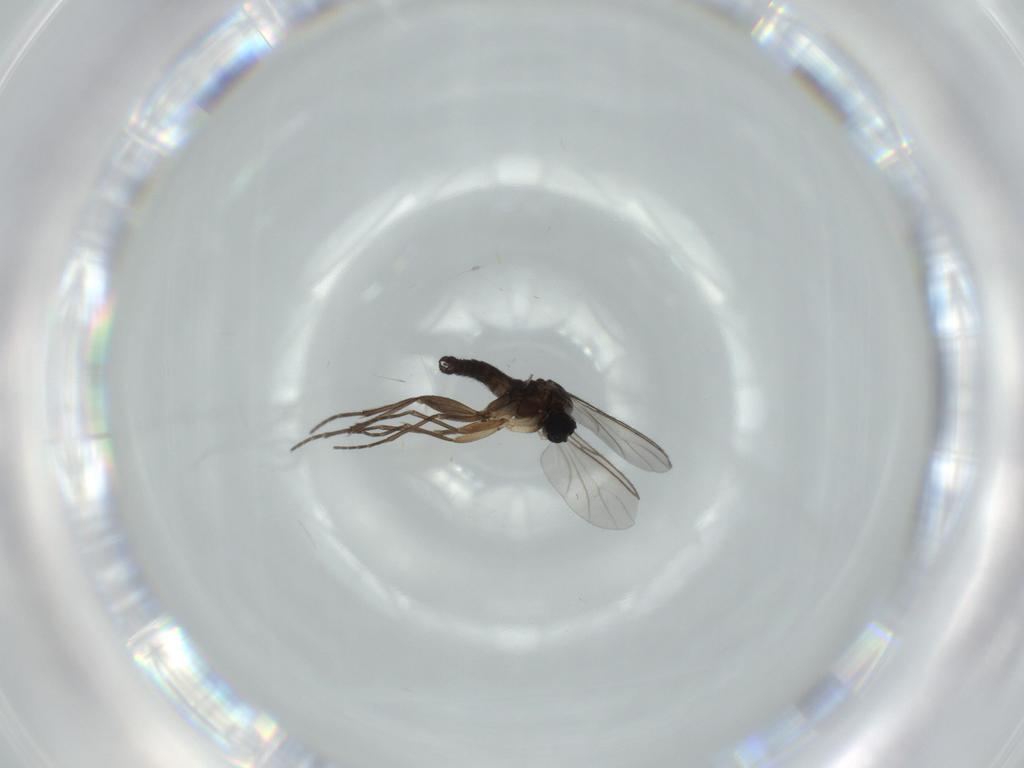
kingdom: Animalia
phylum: Arthropoda
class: Insecta
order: Diptera
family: Sciaridae
